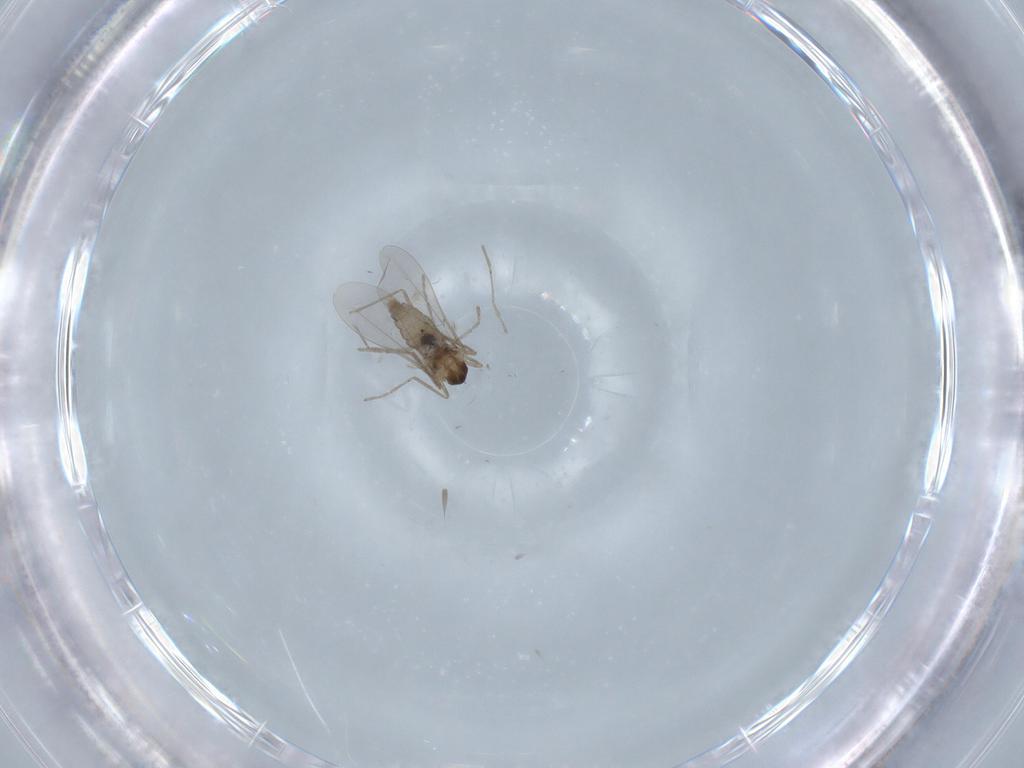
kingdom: Animalia
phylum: Arthropoda
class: Insecta
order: Diptera
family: Cecidomyiidae
